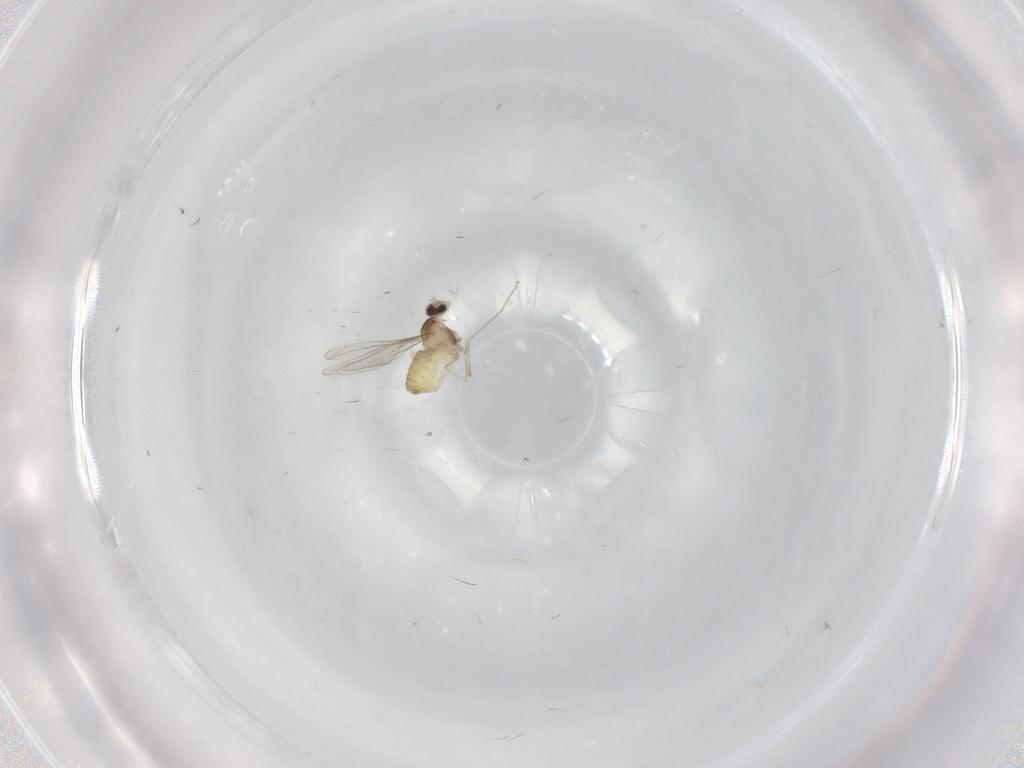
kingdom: Animalia
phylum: Arthropoda
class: Insecta
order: Diptera
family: Cecidomyiidae
